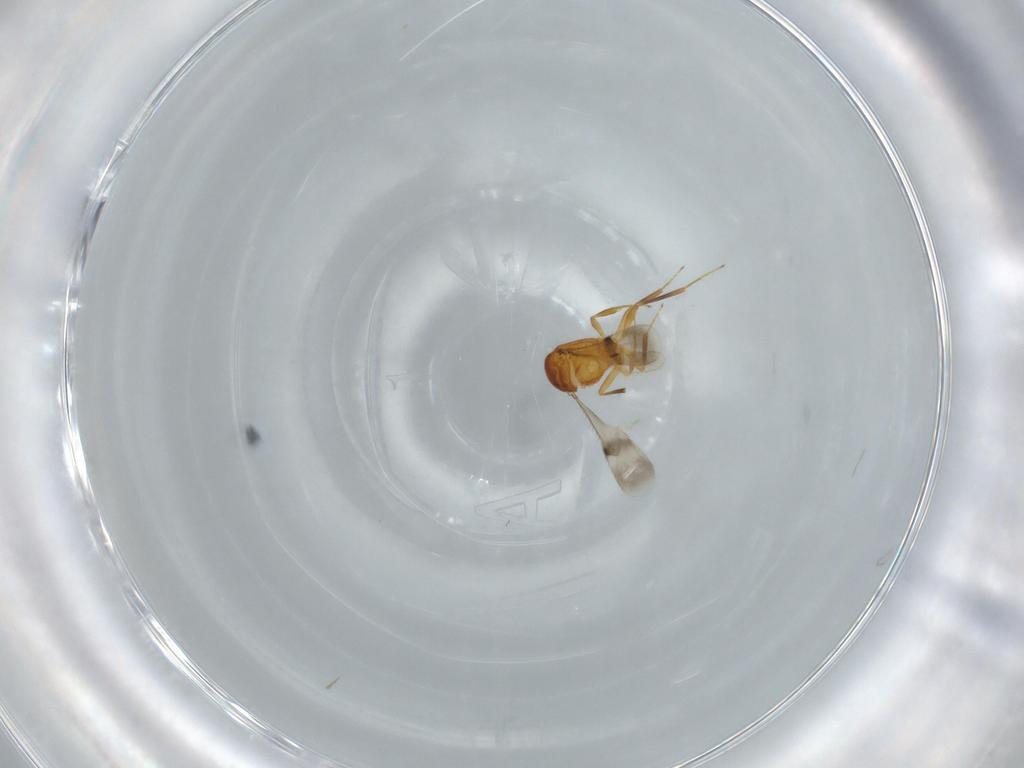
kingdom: Animalia
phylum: Arthropoda
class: Insecta
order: Hymenoptera
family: Scelionidae
